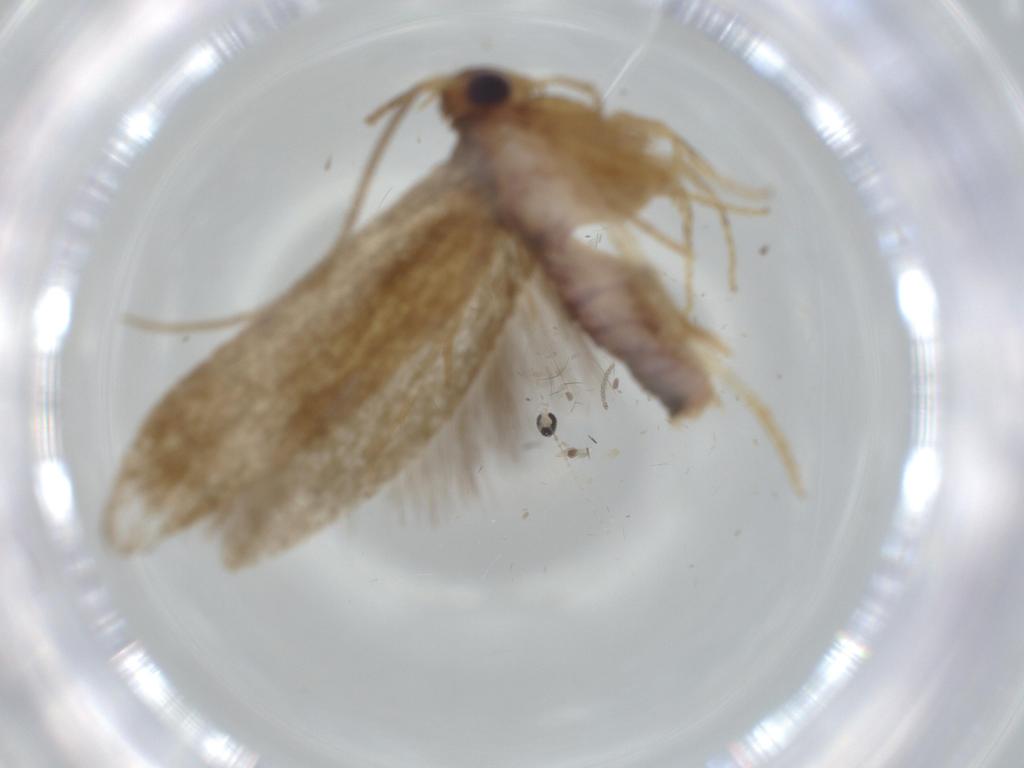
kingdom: Animalia
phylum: Arthropoda
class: Insecta
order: Lepidoptera
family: Tineidae
